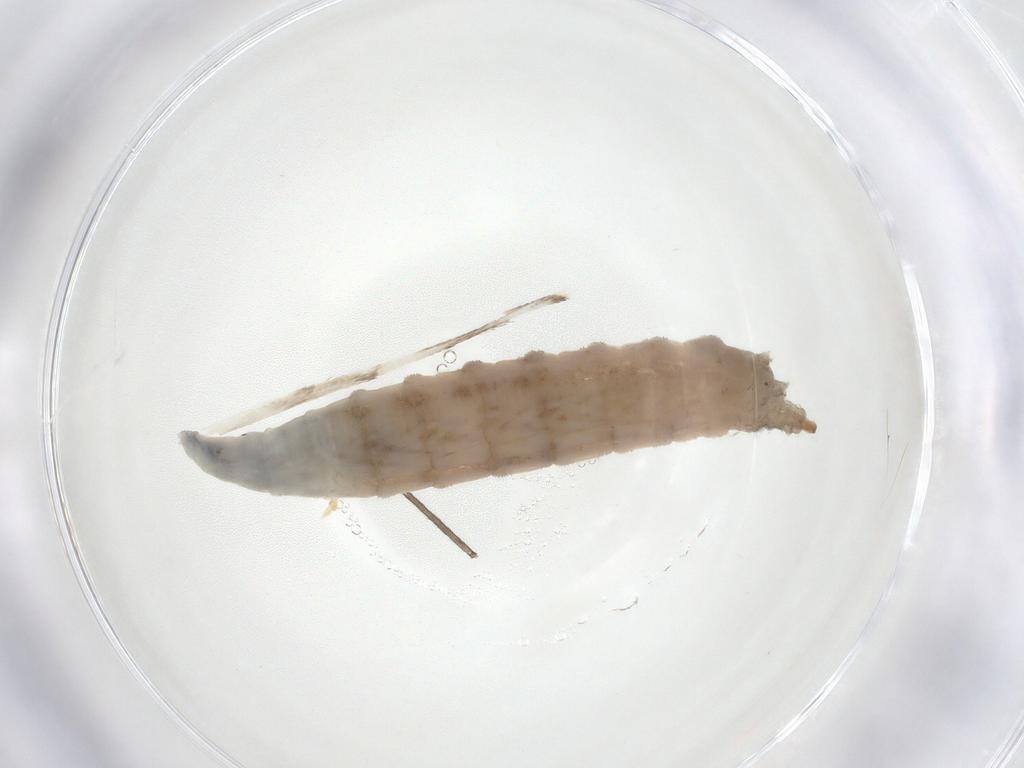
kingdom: Animalia
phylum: Arthropoda
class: Insecta
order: Diptera
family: Drosophilidae
